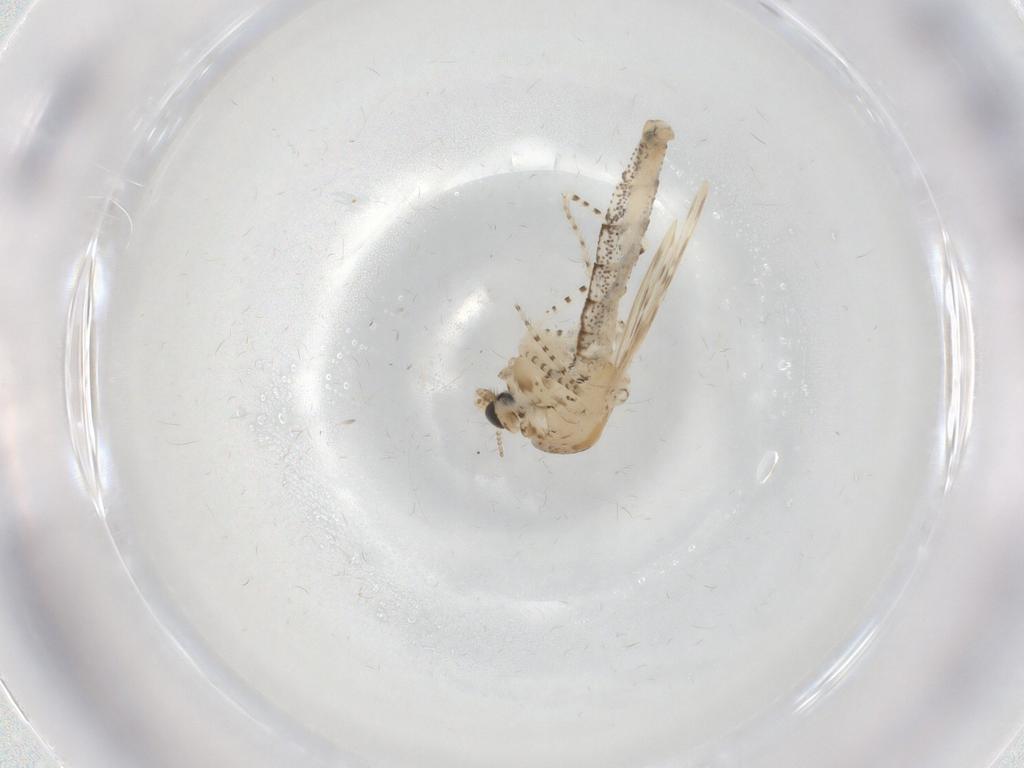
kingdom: Animalia
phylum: Arthropoda
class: Insecta
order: Diptera
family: Chaoboridae
